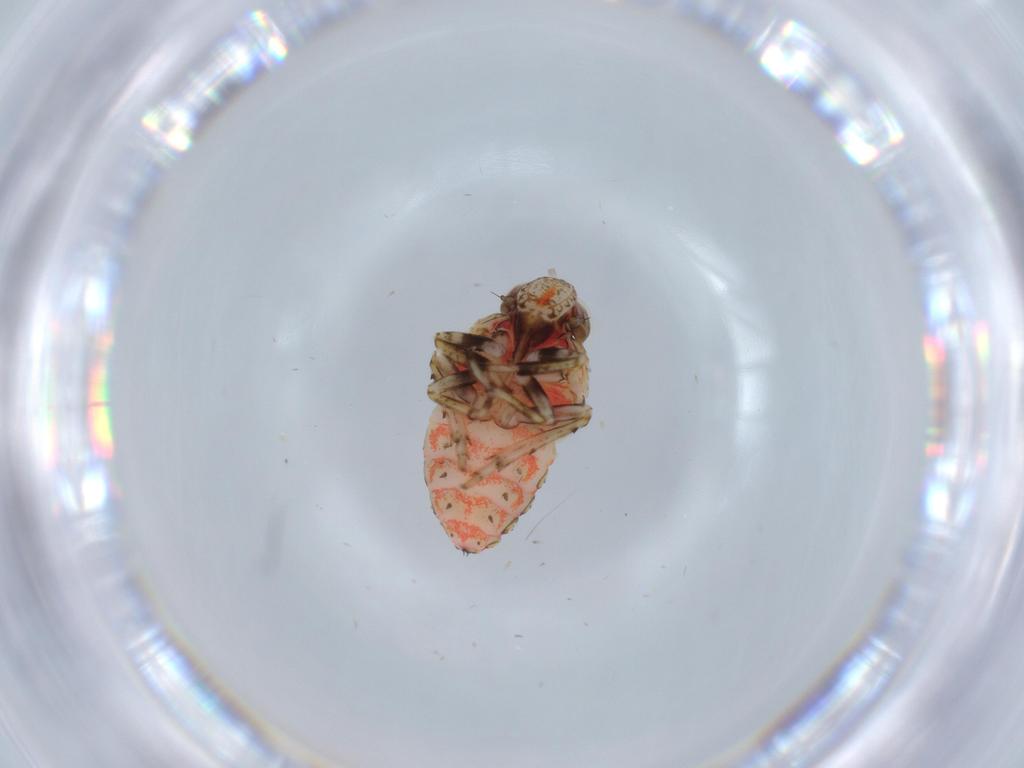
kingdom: Animalia
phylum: Arthropoda
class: Insecta
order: Hemiptera
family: Issidae
